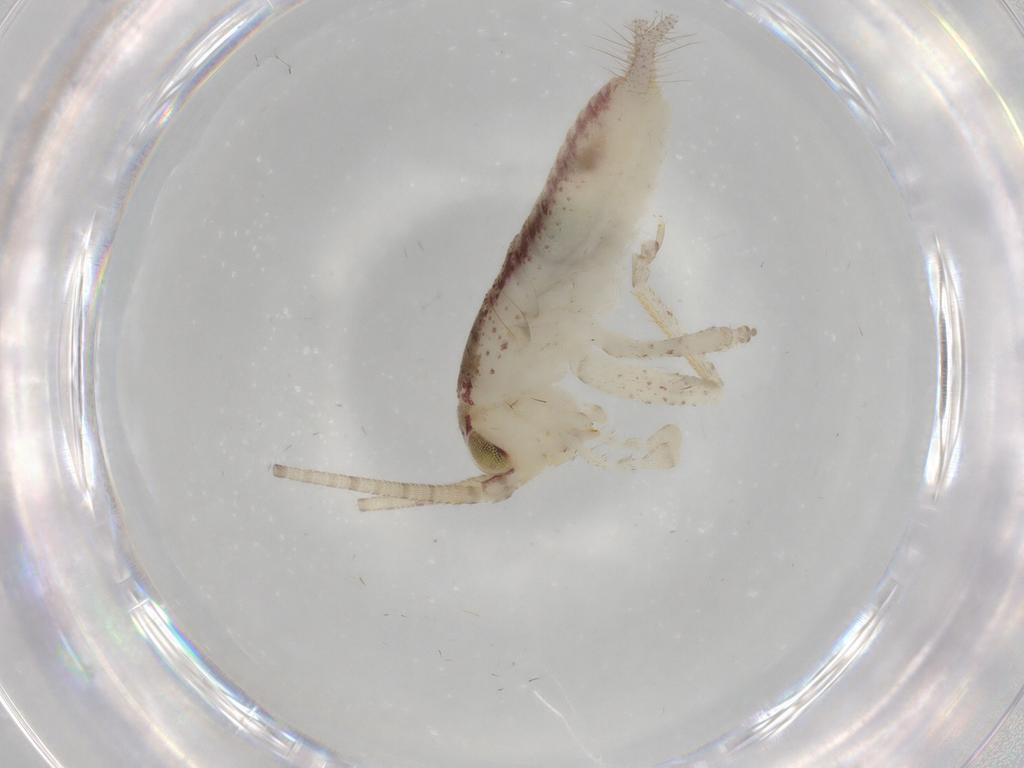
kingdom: Animalia
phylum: Arthropoda
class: Insecta
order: Orthoptera
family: Gryllidae
